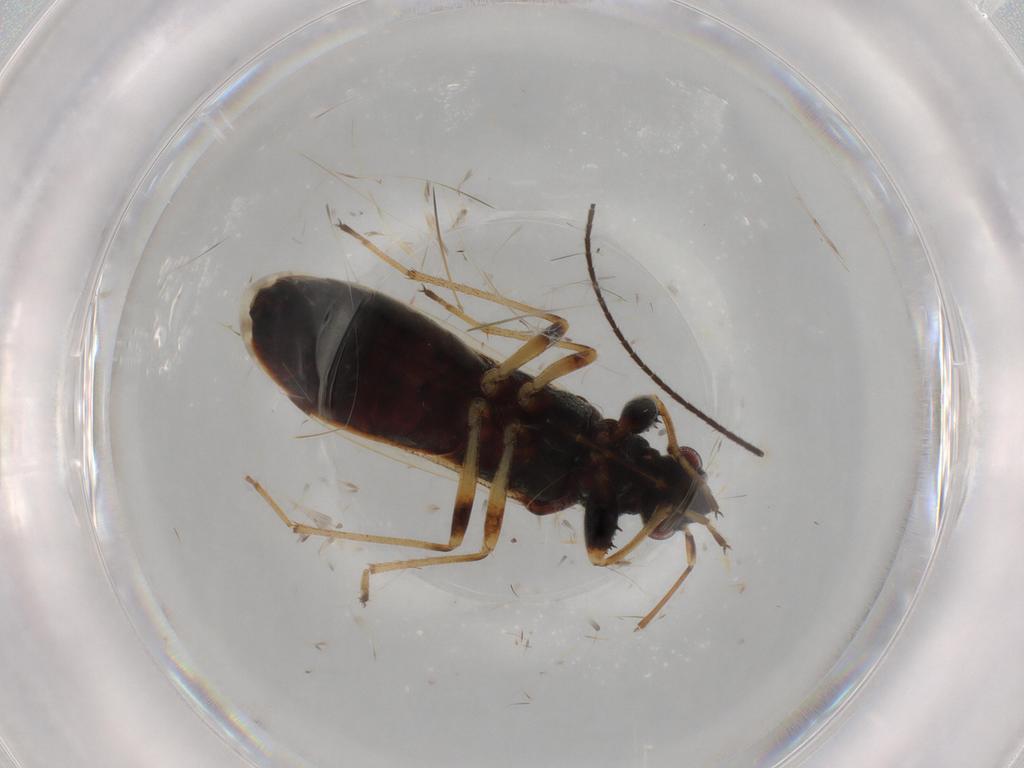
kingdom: Animalia
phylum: Arthropoda
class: Insecta
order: Hemiptera
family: Rhyparochromidae
